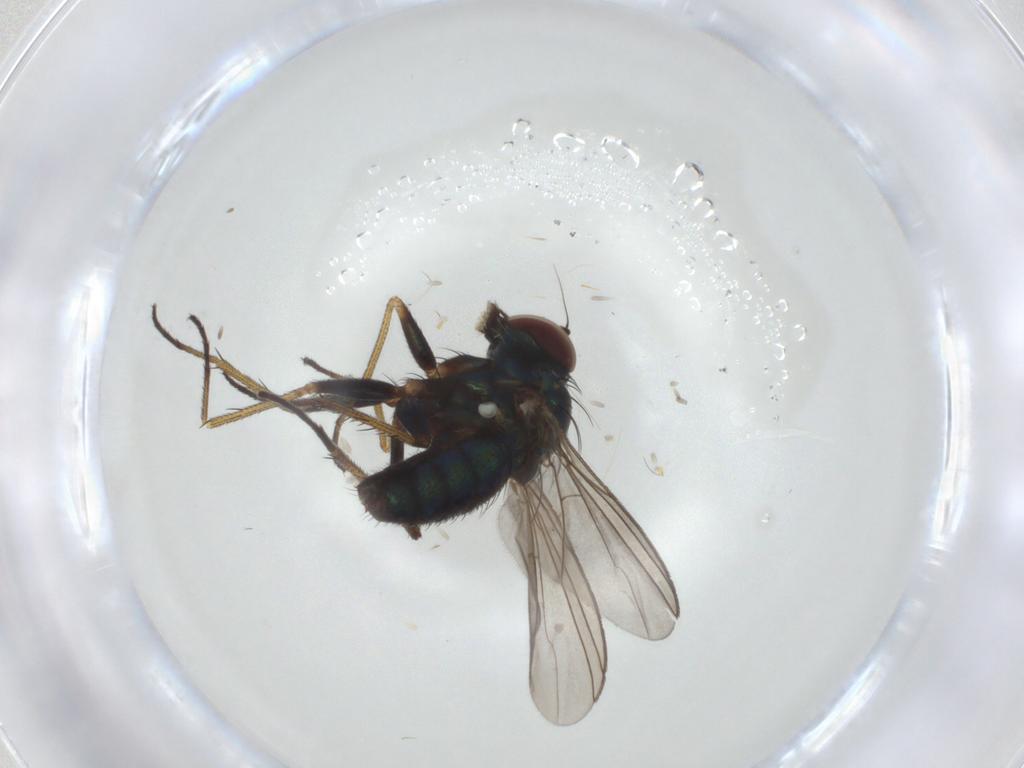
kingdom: Animalia
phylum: Arthropoda
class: Insecta
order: Diptera
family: Dolichopodidae
